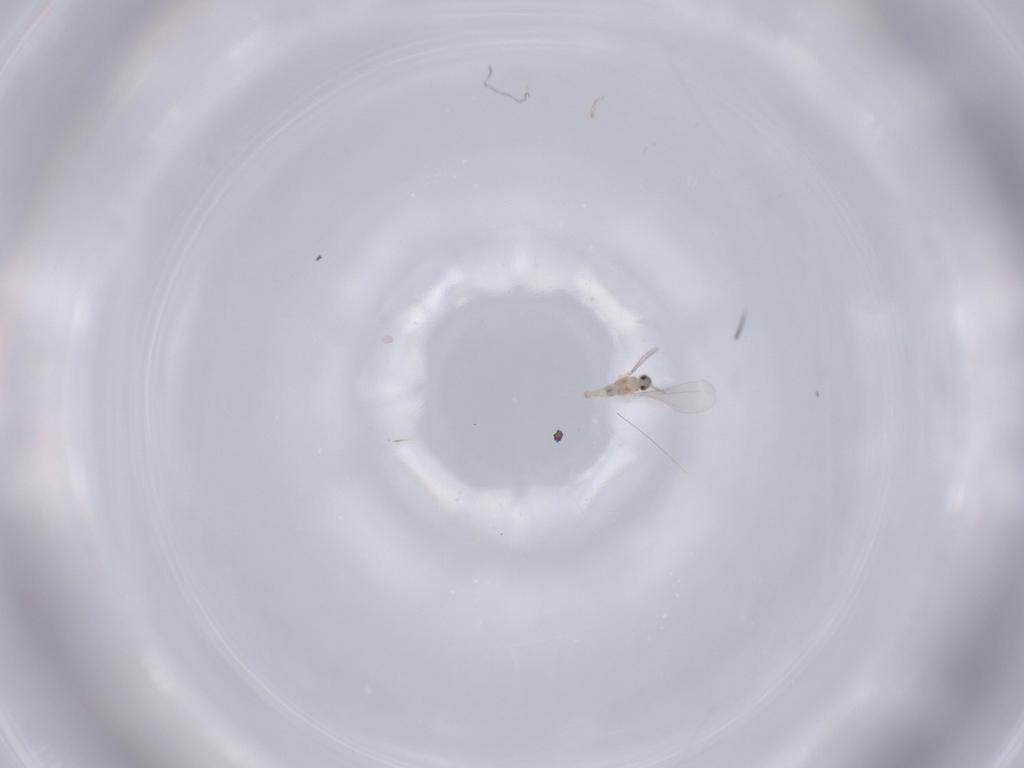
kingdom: Animalia
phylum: Arthropoda
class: Insecta
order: Diptera
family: Cecidomyiidae
